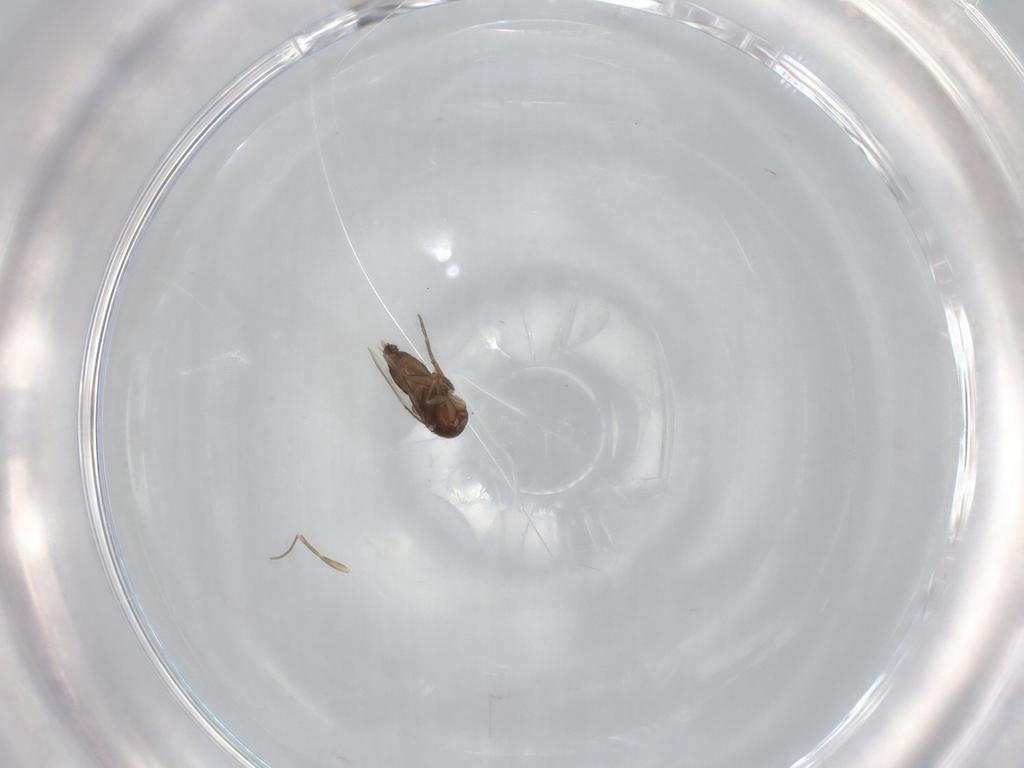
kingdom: Animalia
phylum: Arthropoda
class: Insecta
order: Diptera
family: Phoridae
